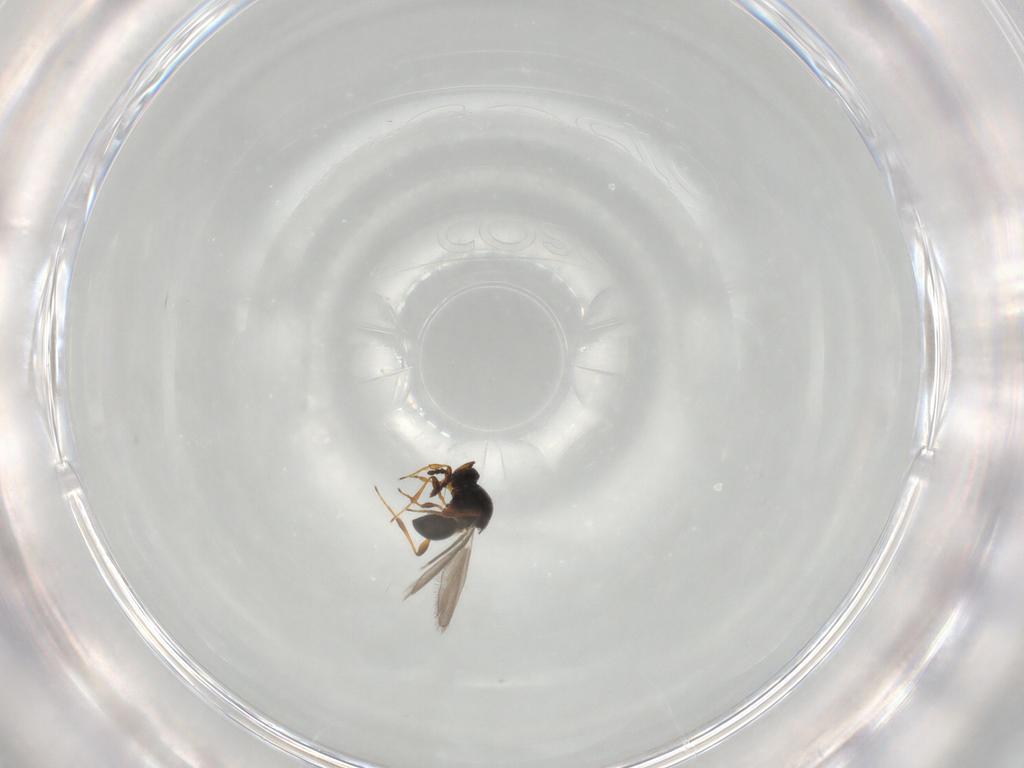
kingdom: Animalia
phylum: Arthropoda
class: Insecta
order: Hymenoptera
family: Platygastridae
